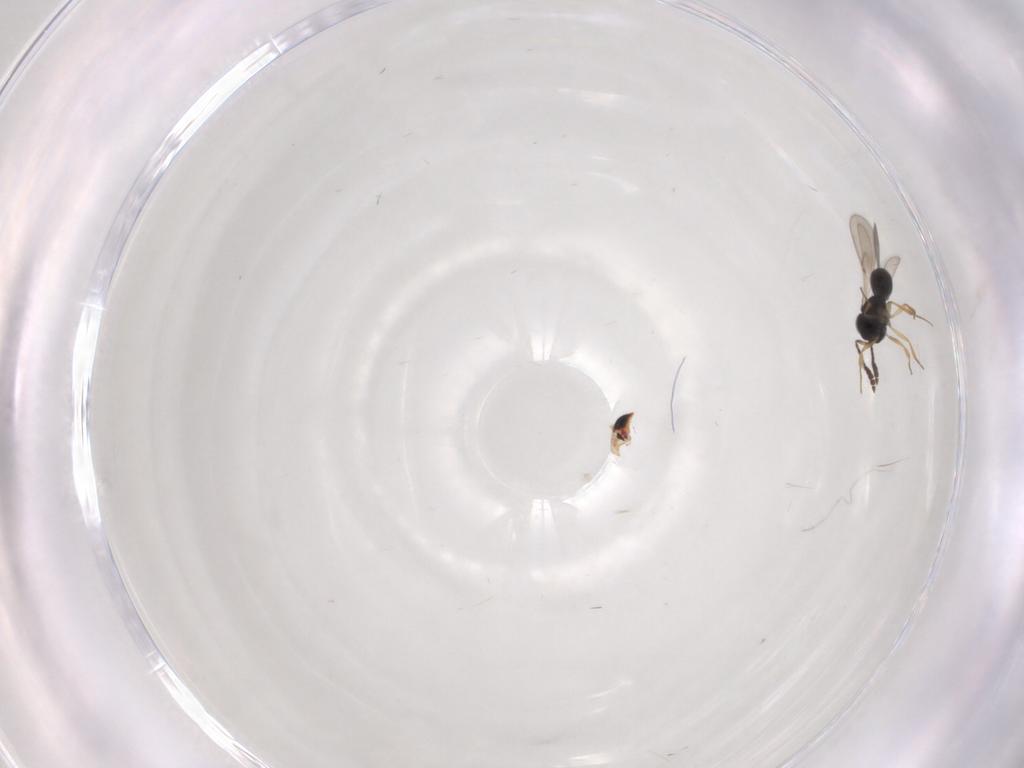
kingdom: Animalia
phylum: Arthropoda
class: Insecta
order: Hymenoptera
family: Scelionidae
